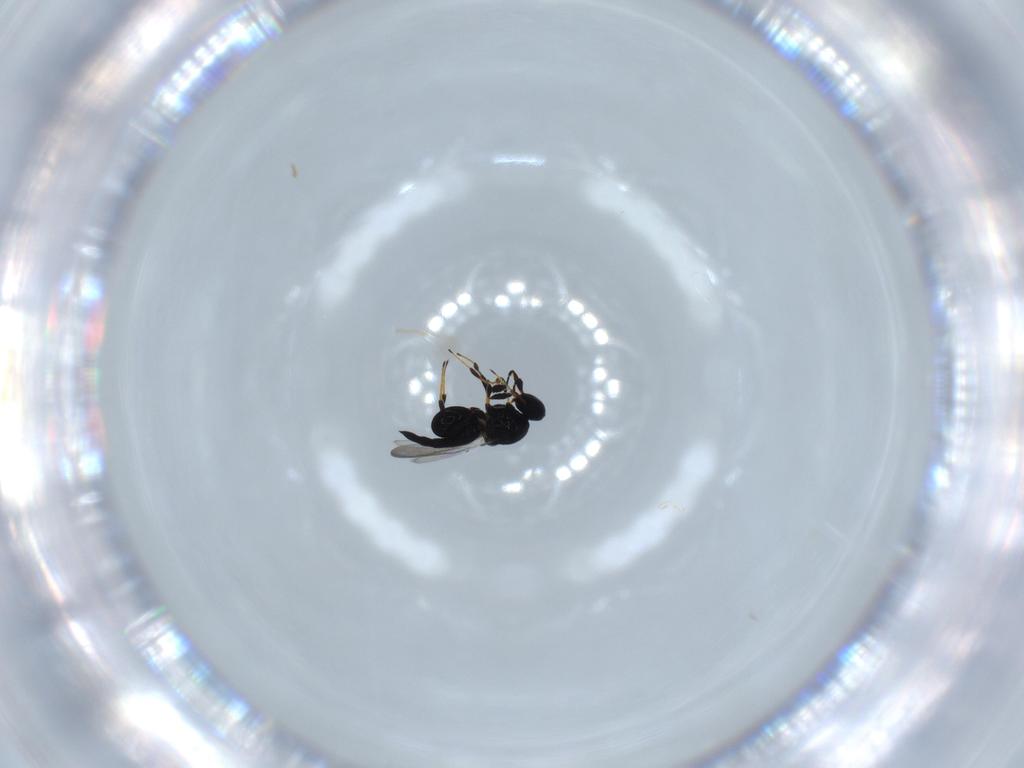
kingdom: Animalia
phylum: Arthropoda
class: Insecta
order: Hymenoptera
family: Platygastridae
